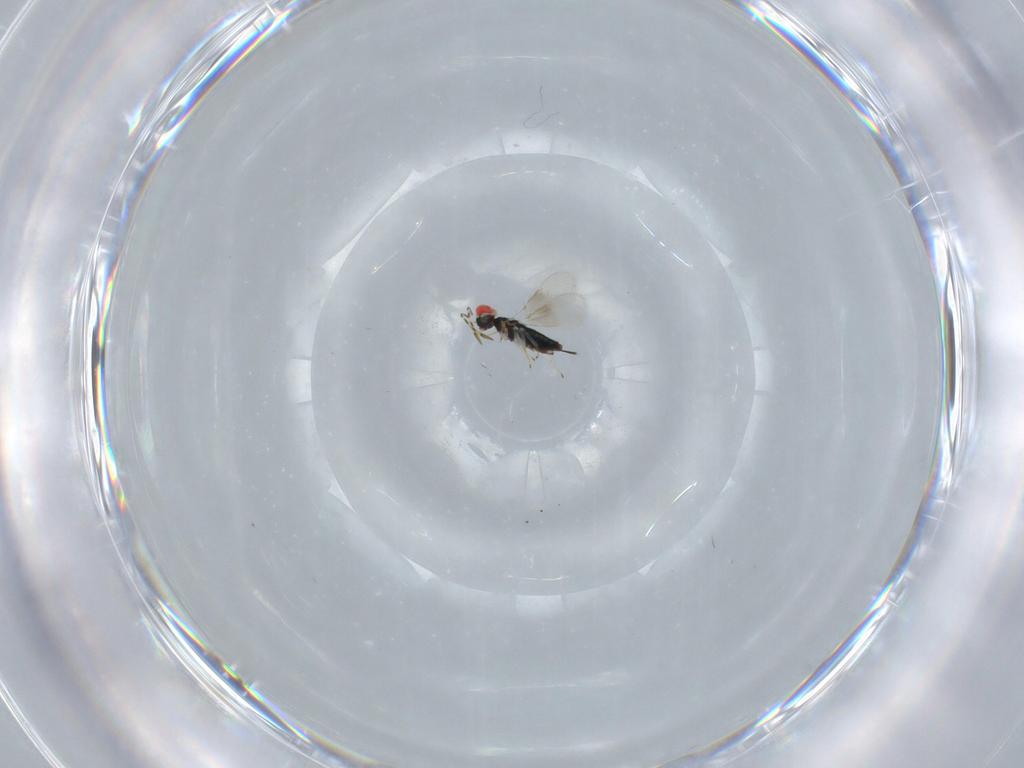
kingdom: Animalia
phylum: Arthropoda
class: Insecta
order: Hymenoptera
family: Azotidae
